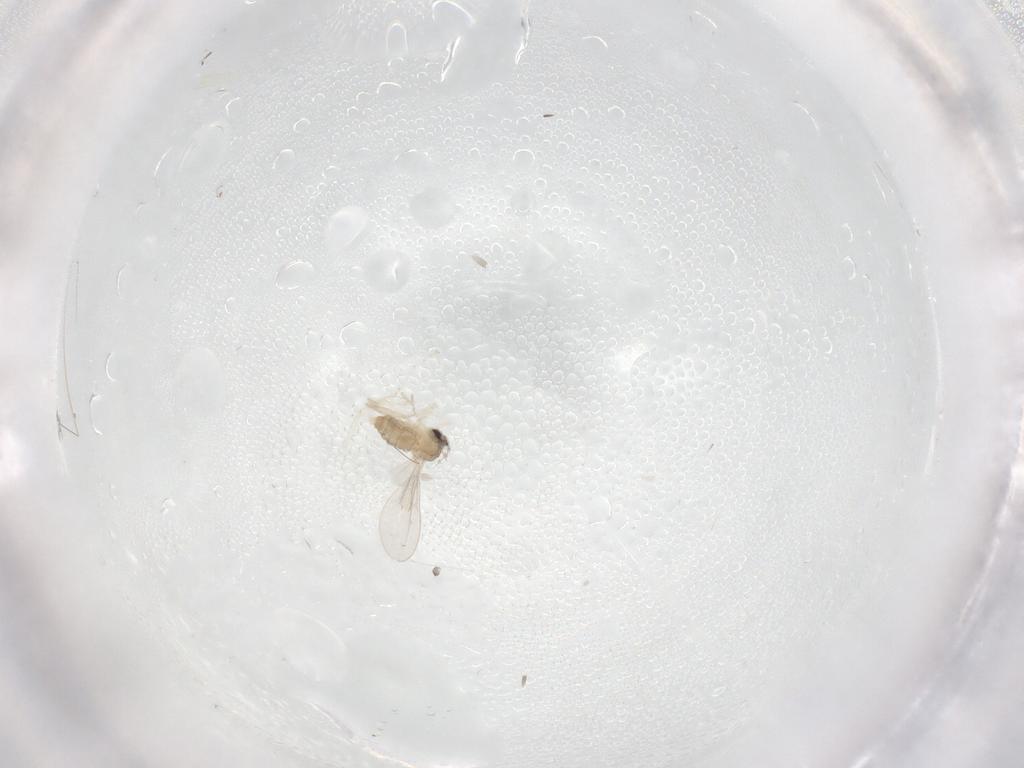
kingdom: Animalia
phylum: Arthropoda
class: Insecta
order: Diptera
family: Cecidomyiidae
